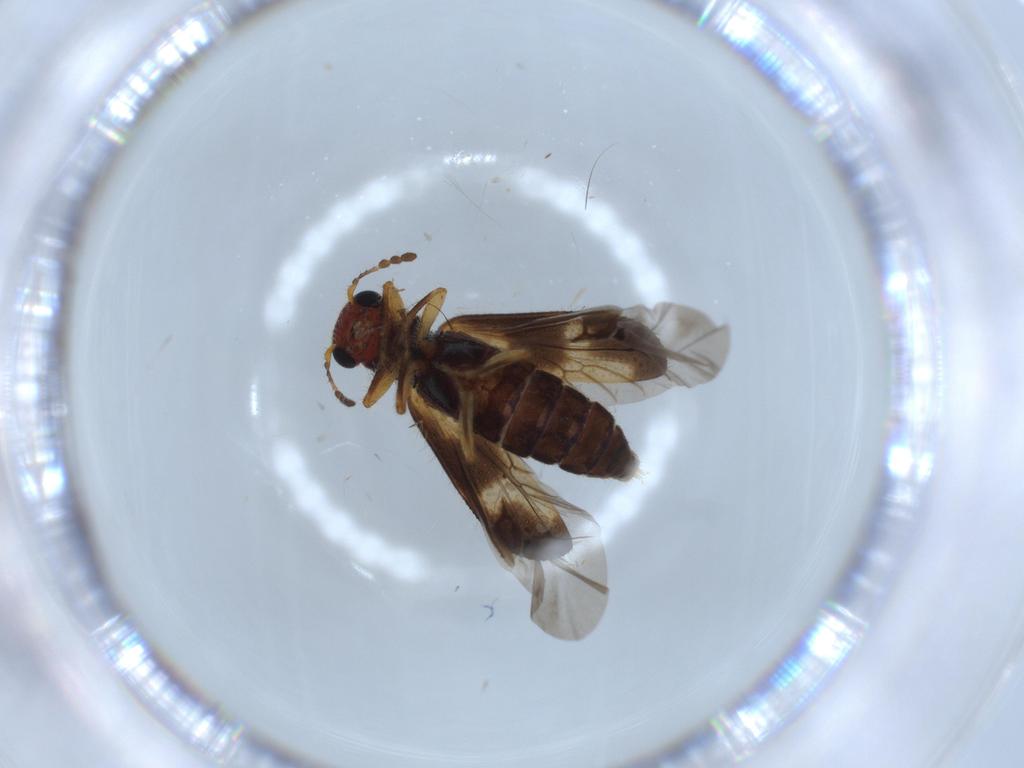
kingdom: Animalia
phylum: Arthropoda
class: Insecta
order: Coleoptera
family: Cleridae
